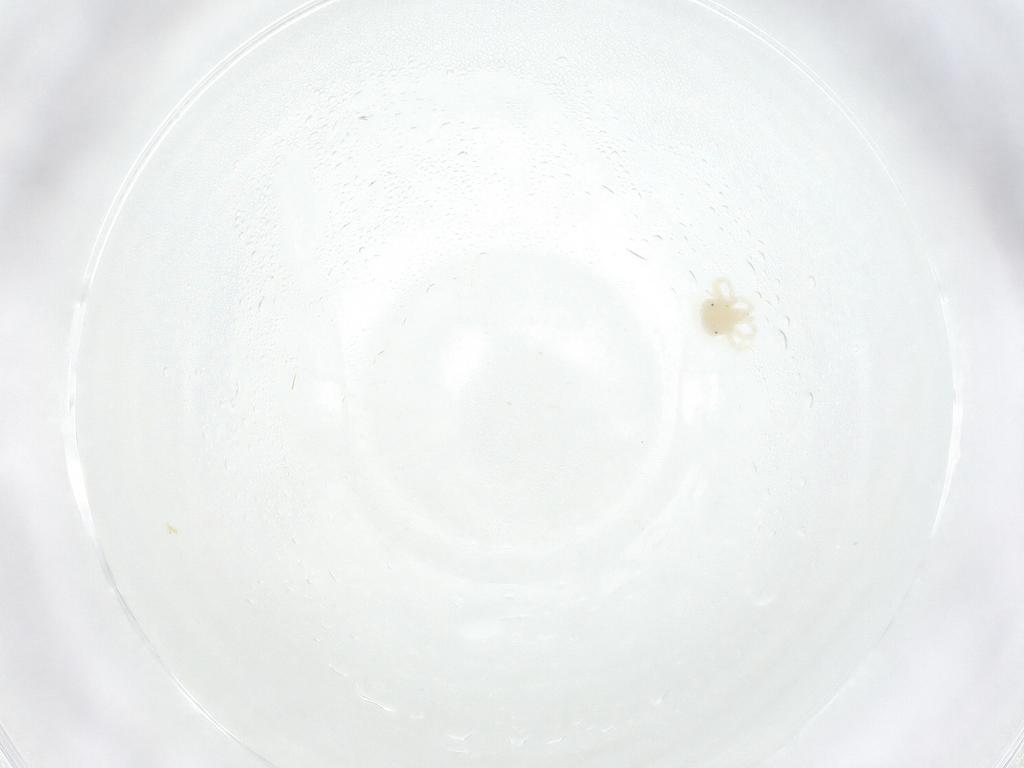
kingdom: Animalia
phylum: Arthropoda
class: Arachnida
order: Trombidiformes
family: Anystidae
